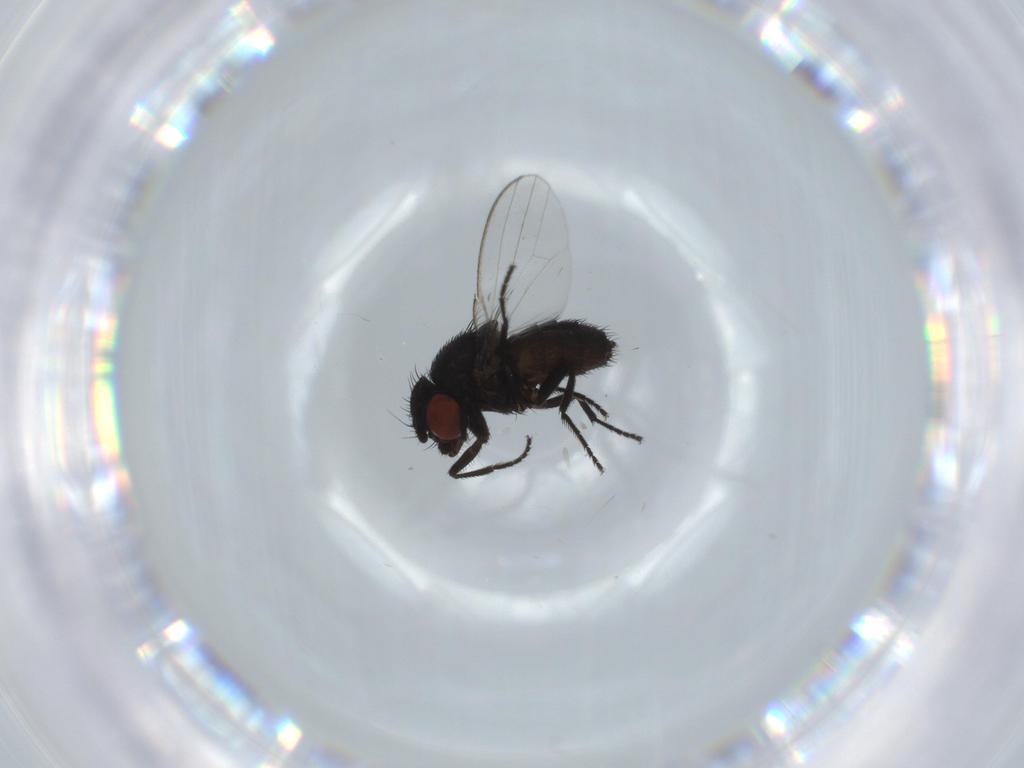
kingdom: Animalia
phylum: Arthropoda
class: Insecta
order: Diptera
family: Milichiidae
